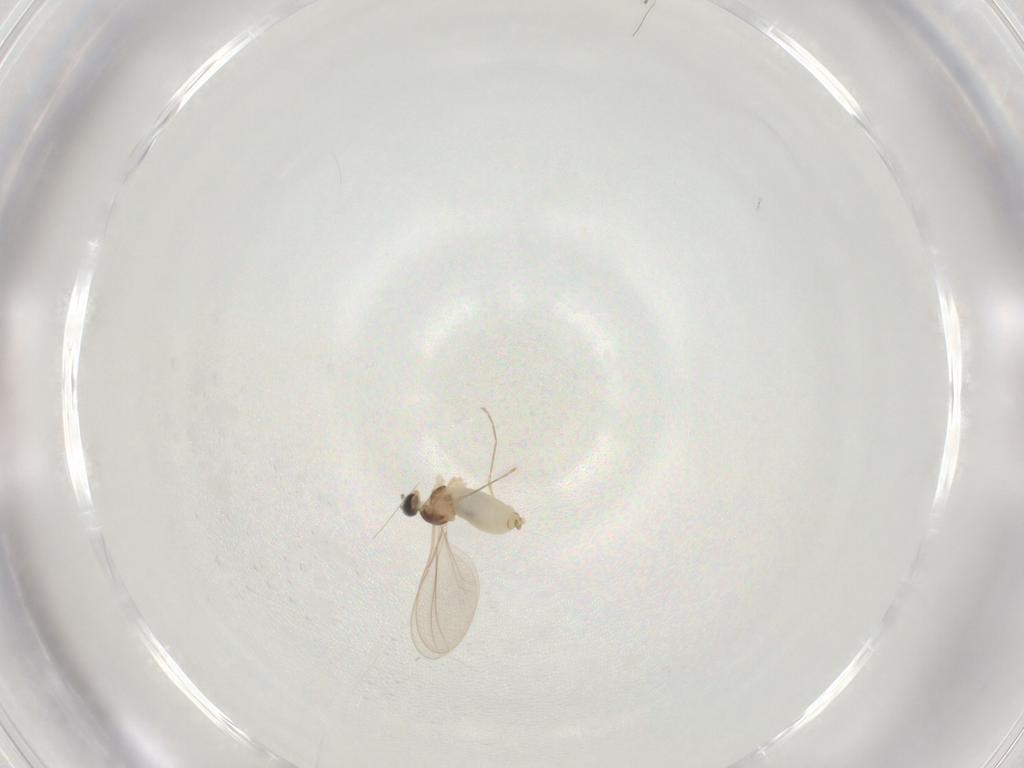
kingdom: Animalia
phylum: Arthropoda
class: Insecta
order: Diptera
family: Cecidomyiidae
